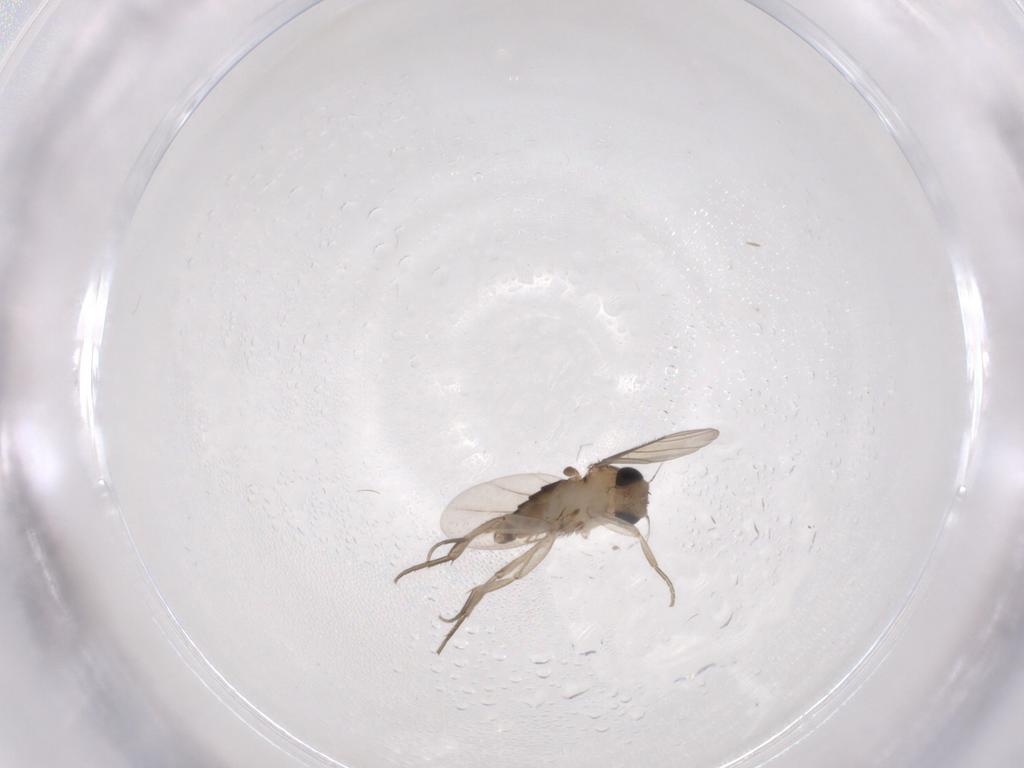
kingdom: Animalia
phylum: Arthropoda
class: Insecta
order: Diptera
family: Phoridae
